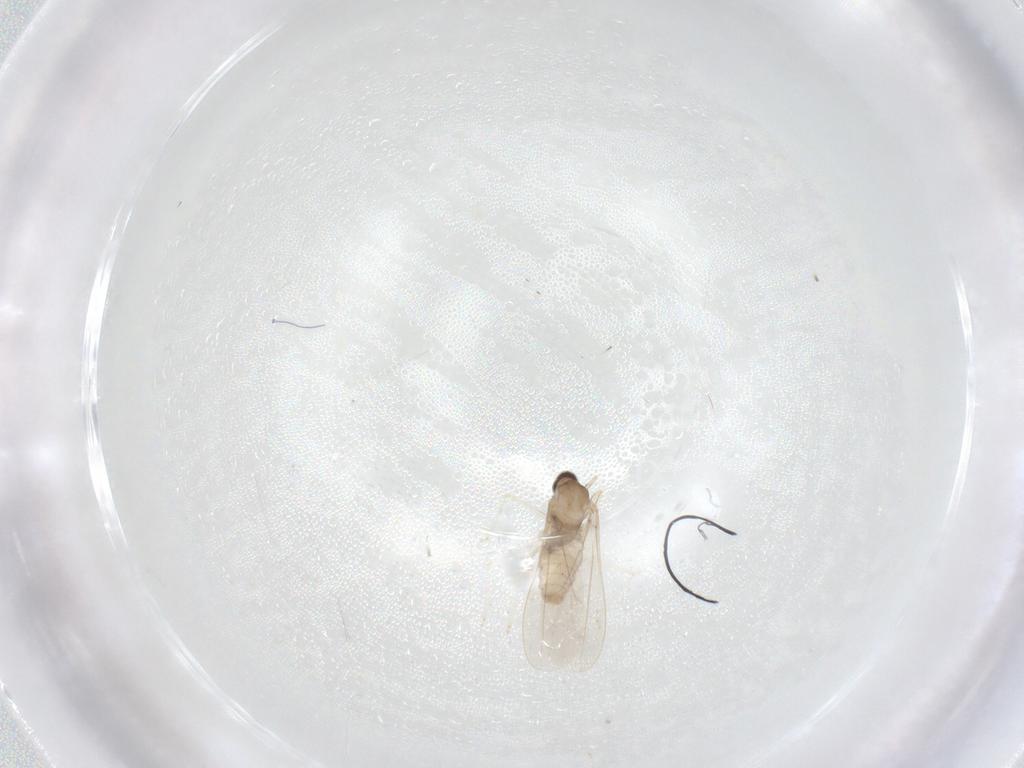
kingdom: Animalia
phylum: Arthropoda
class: Insecta
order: Diptera
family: Cecidomyiidae
